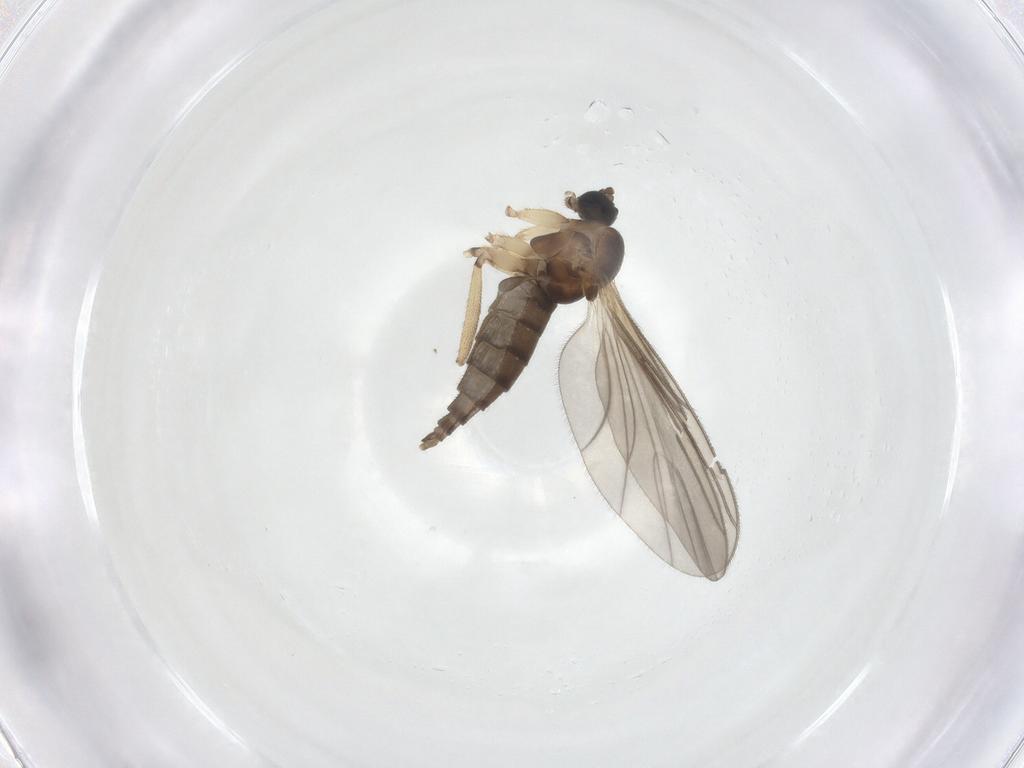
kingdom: Animalia
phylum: Arthropoda
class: Insecta
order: Diptera
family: Sciaridae
